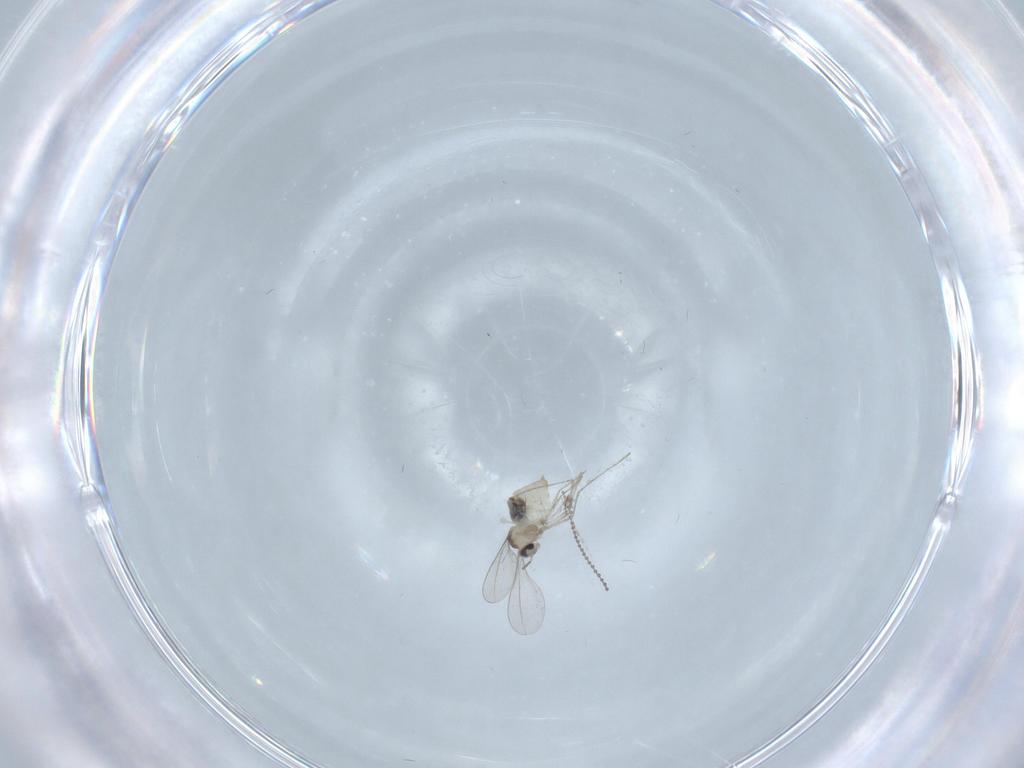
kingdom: Animalia
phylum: Arthropoda
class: Insecta
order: Diptera
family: Cecidomyiidae
